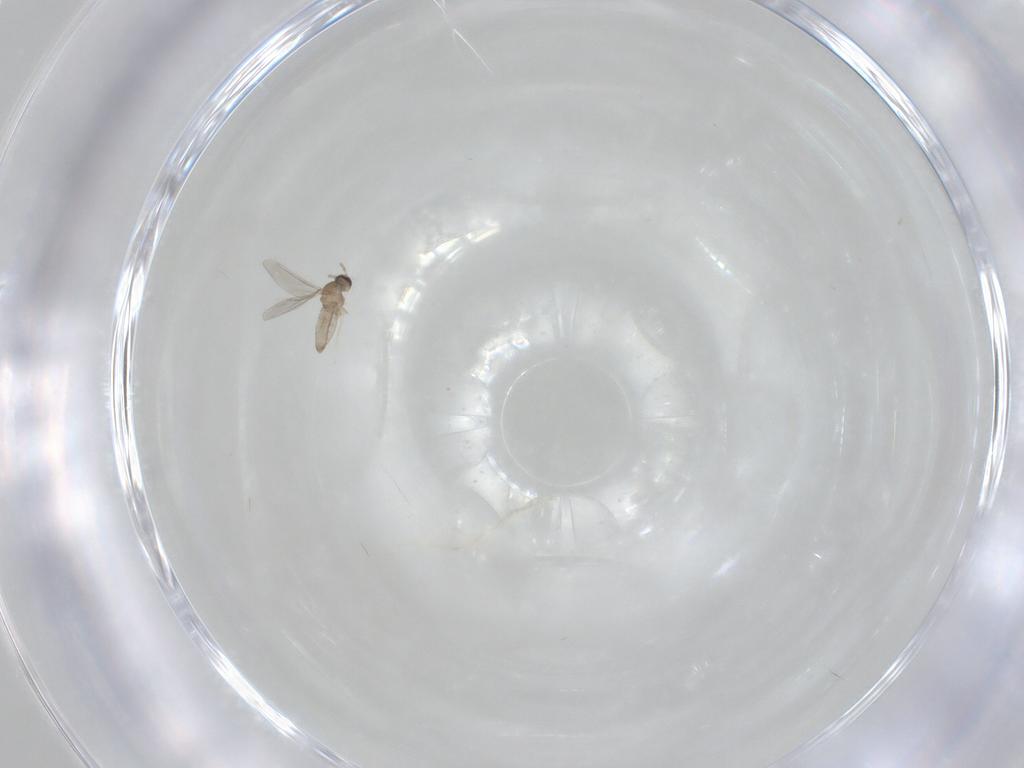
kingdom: Animalia
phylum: Arthropoda
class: Insecta
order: Diptera
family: Cecidomyiidae
